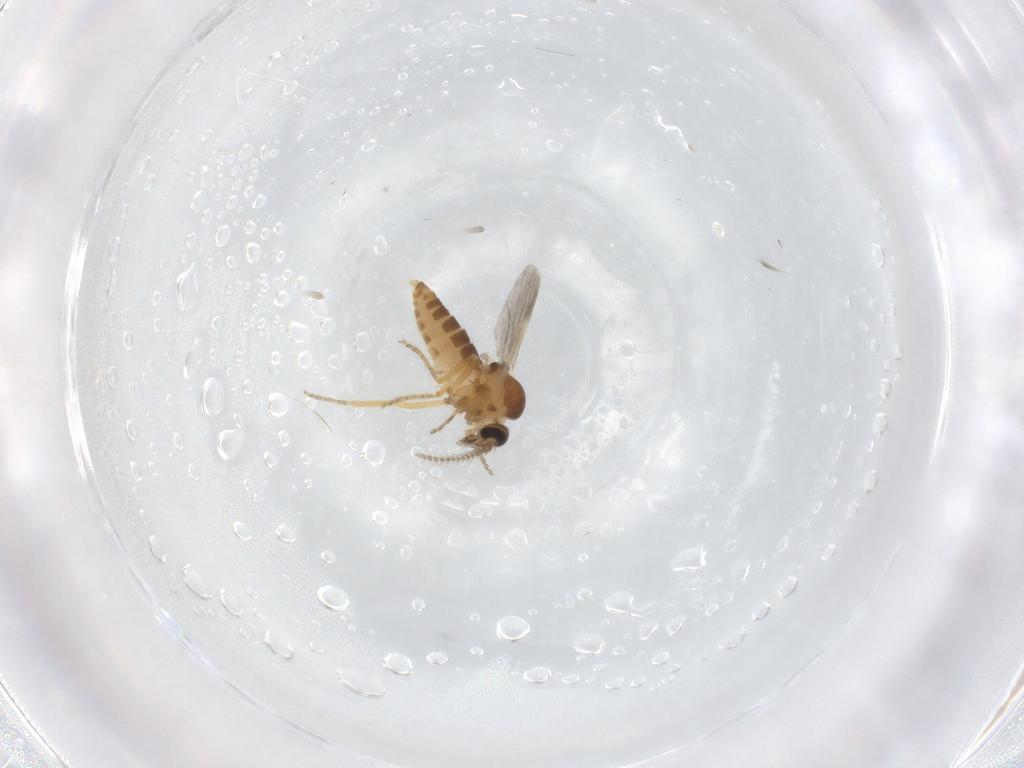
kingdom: Animalia
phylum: Arthropoda
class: Insecta
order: Diptera
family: Ceratopogonidae
